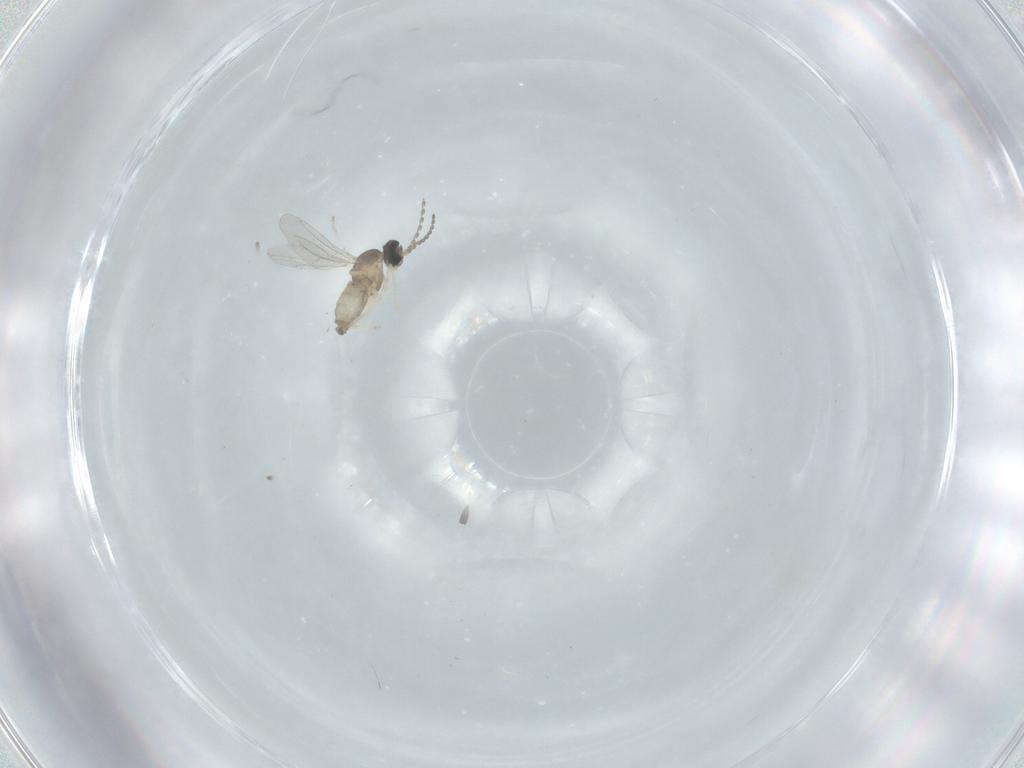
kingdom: Animalia
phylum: Arthropoda
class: Insecta
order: Diptera
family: Cecidomyiidae
